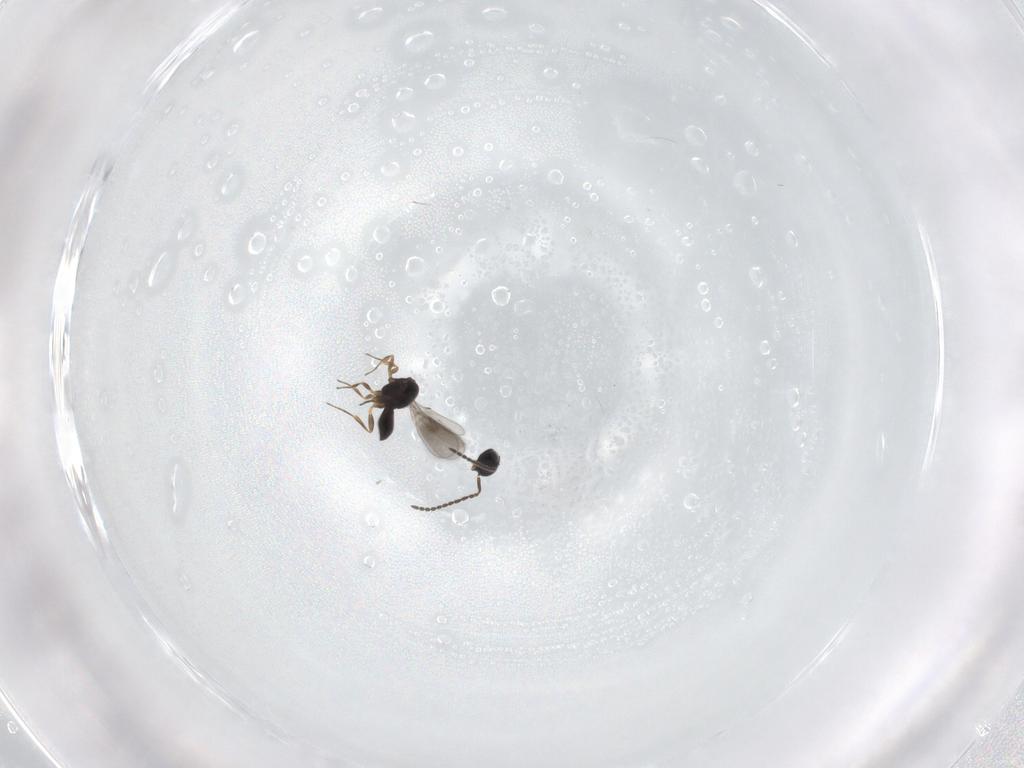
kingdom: Animalia
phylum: Arthropoda
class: Insecta
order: Hymenoptera
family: Scelionidae
